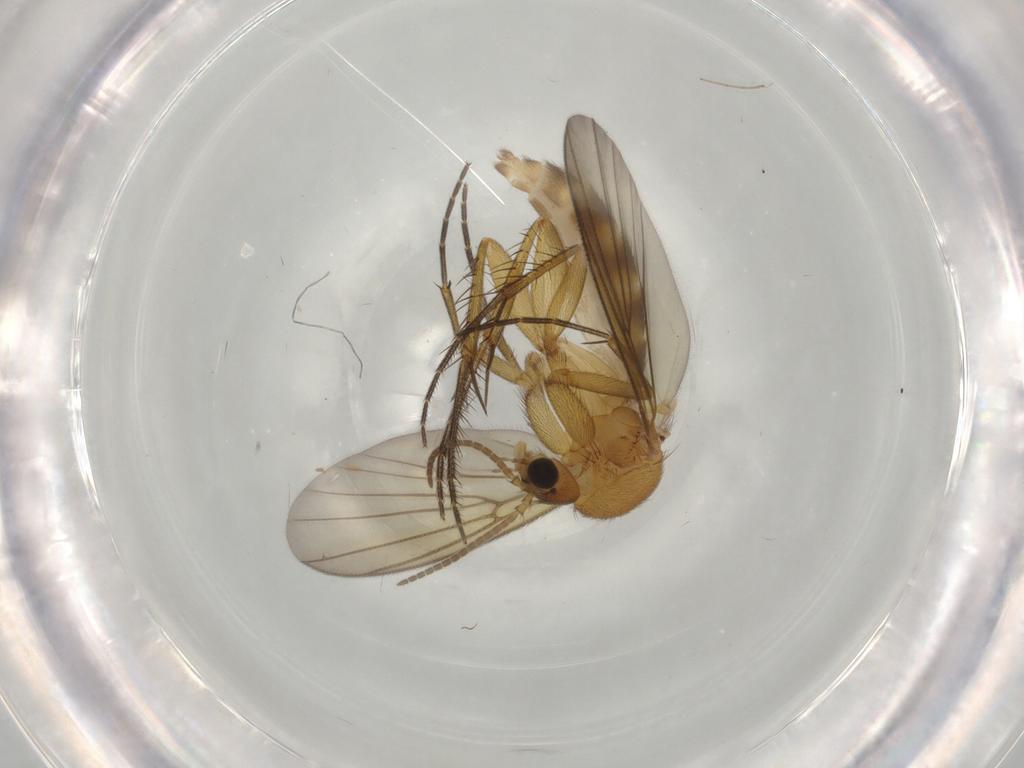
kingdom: Animalia
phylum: Arthropoda
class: Insecta
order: Diptera
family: Mycetophilidae
